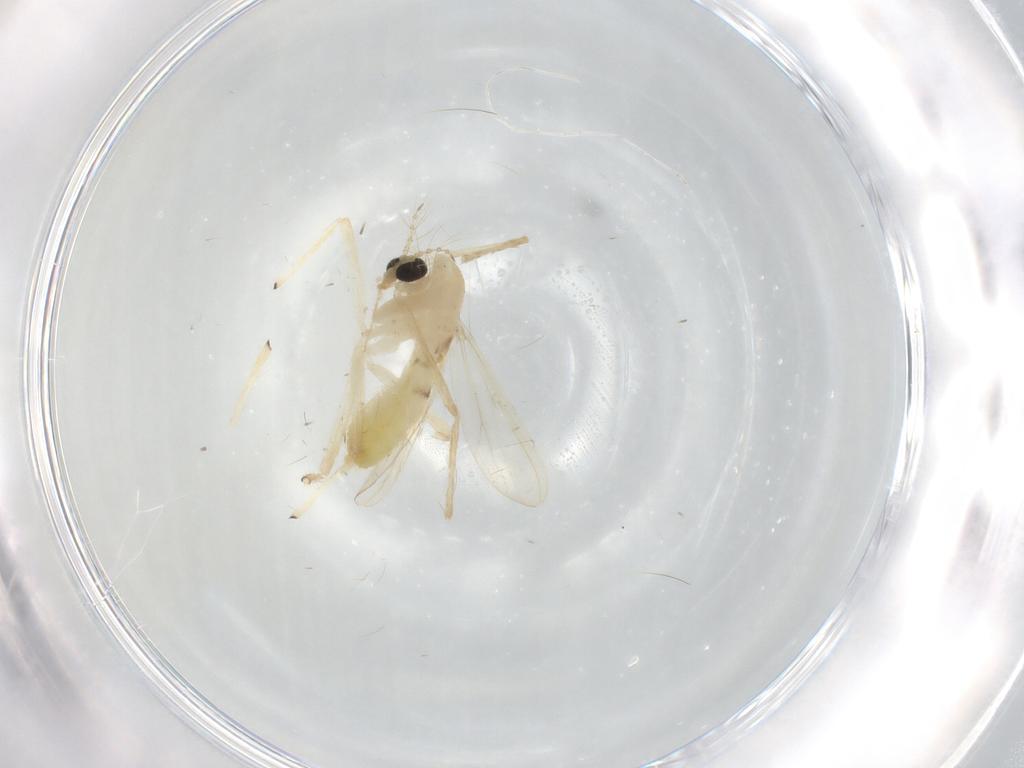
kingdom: Animalia
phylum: Arthropoda
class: Insecta
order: Diptera
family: Chironomidae
